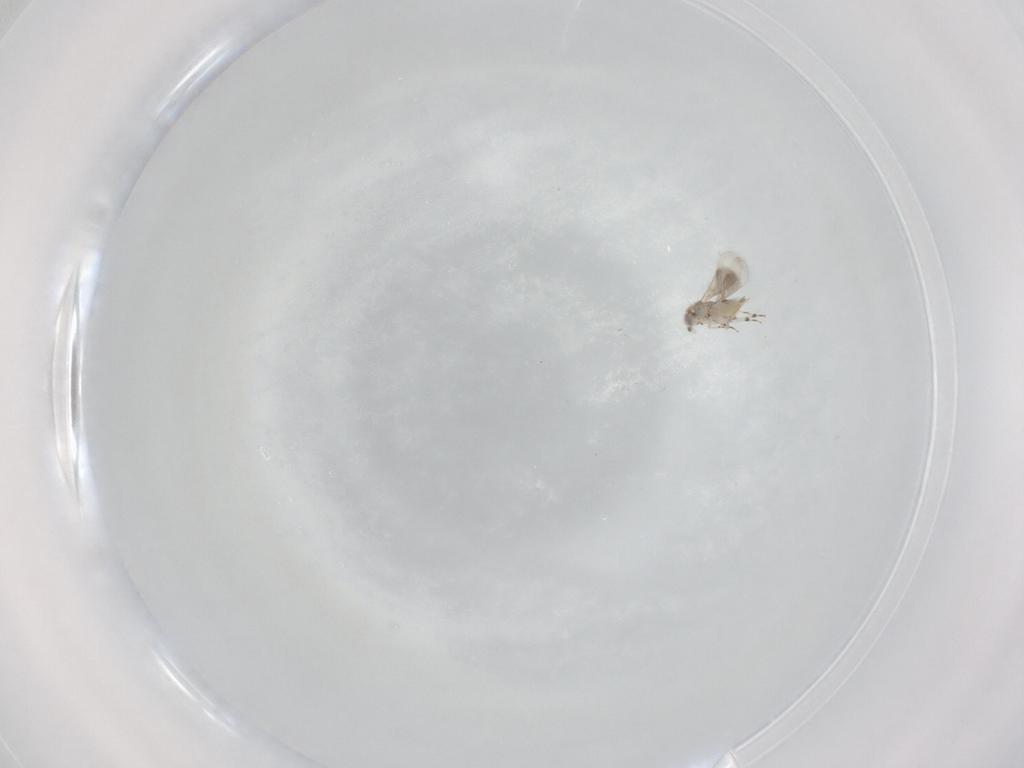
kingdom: Animalia
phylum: Arthropoda
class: Insecta
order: Hymenoptera
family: Aphelinidae
